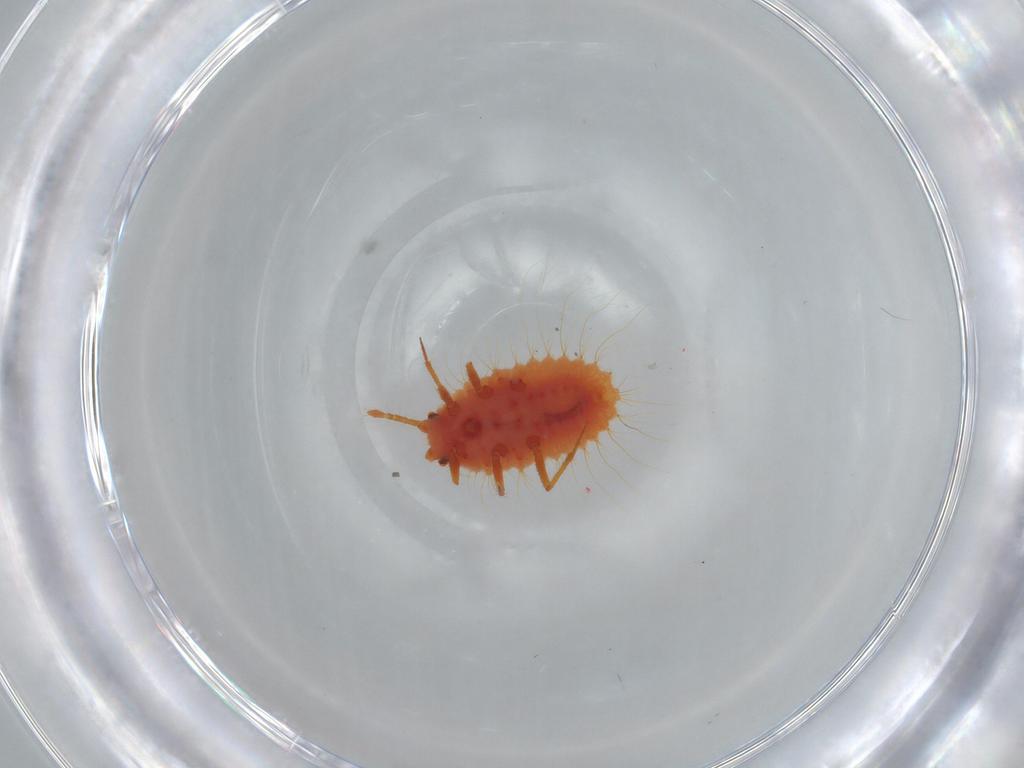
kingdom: Animalia
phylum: Arthropoda
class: Insecta
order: Hemiptera
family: Coccoidea_incertae_sedis
